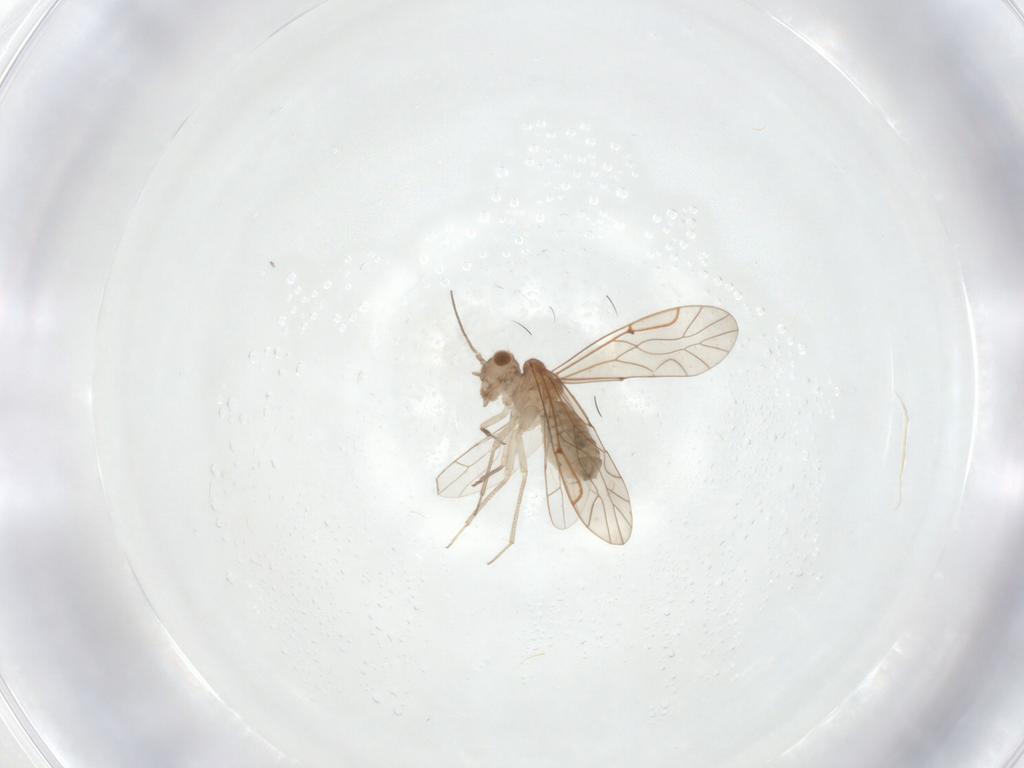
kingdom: Animalia
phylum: Arthropoda
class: Insecta
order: Psocodea
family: Lachesillidae
